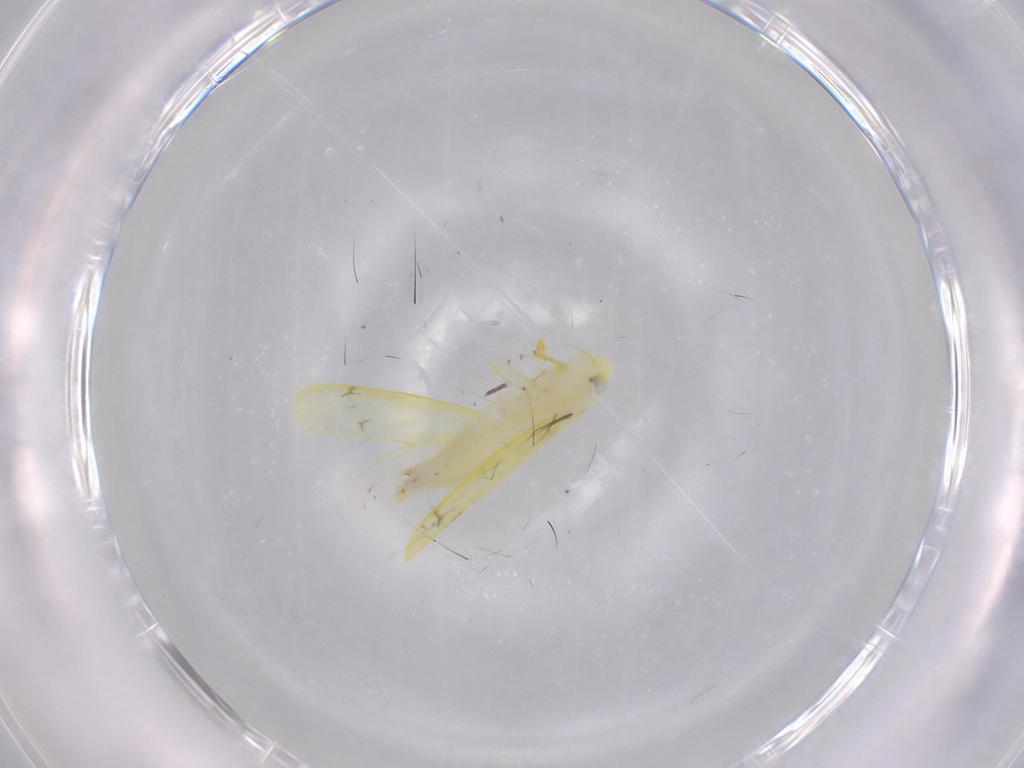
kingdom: Animalia
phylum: Arthropoda
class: Insecta
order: Hemiptera
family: Cicadellidae
